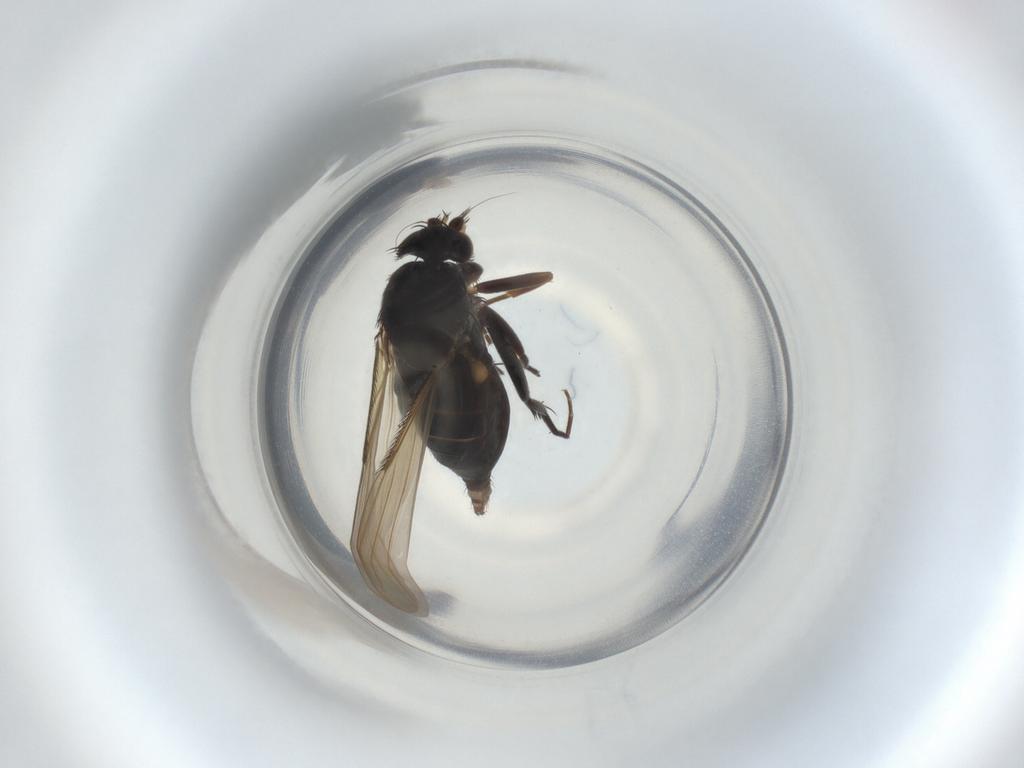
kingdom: Animalia
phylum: Arthropoda
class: Insecta
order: Diptera
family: Phoridae
